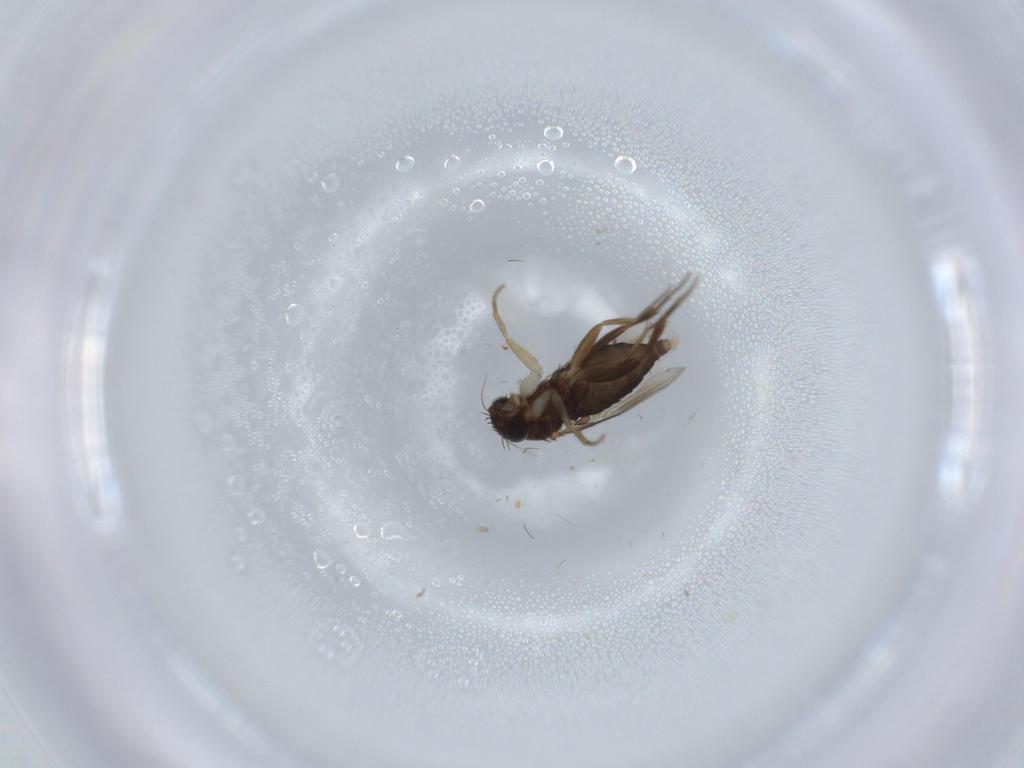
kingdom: Animalia
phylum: Arthropoda
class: Insecta
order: Diptera
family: Phoridae
